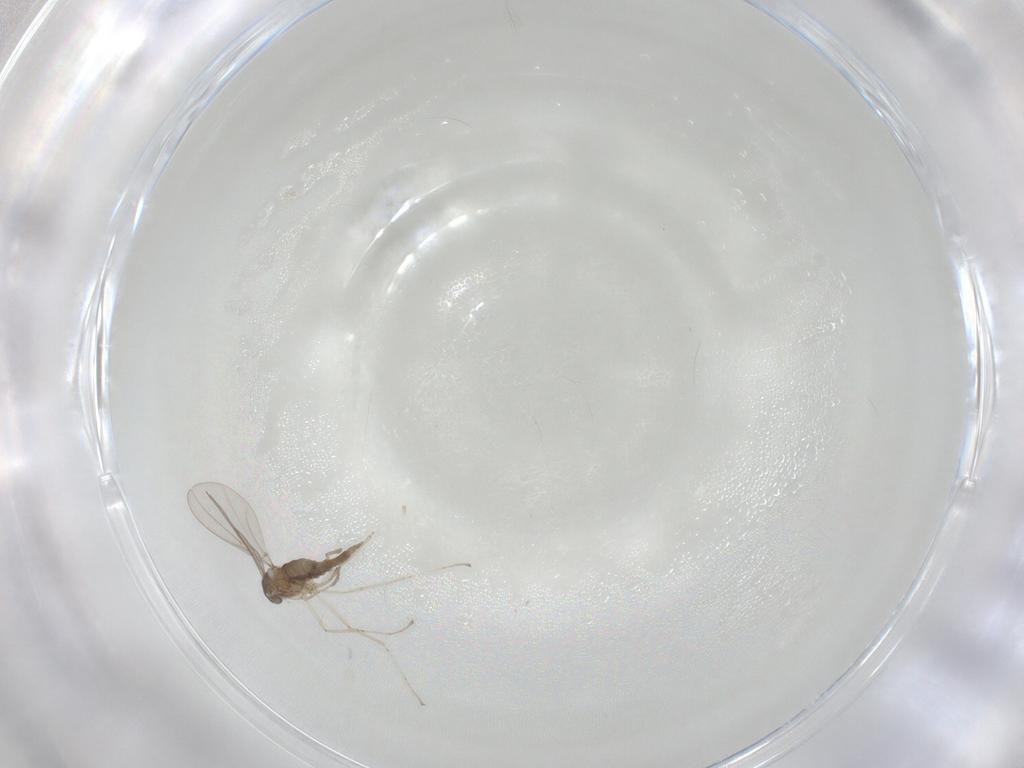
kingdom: Animalia
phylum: Arthropoda
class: Insecta
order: Diptera
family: Cecidomyiidae
